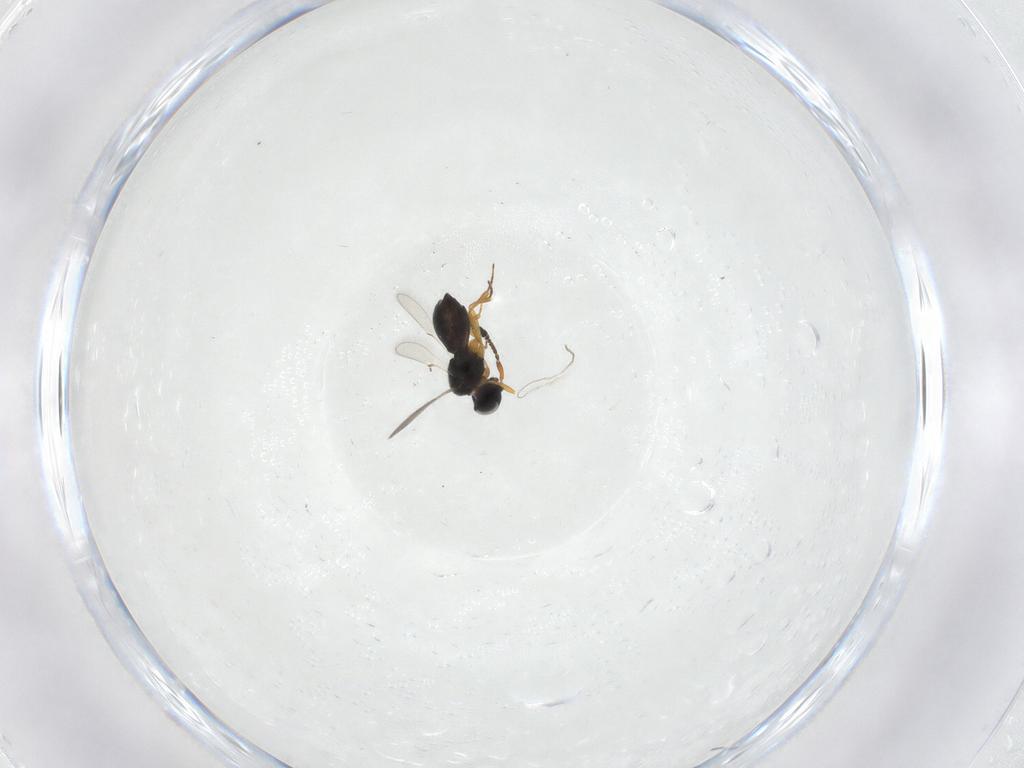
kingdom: Animalia
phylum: Arthropoda
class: Insecta
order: Hymenoptera
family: Scelionidae
